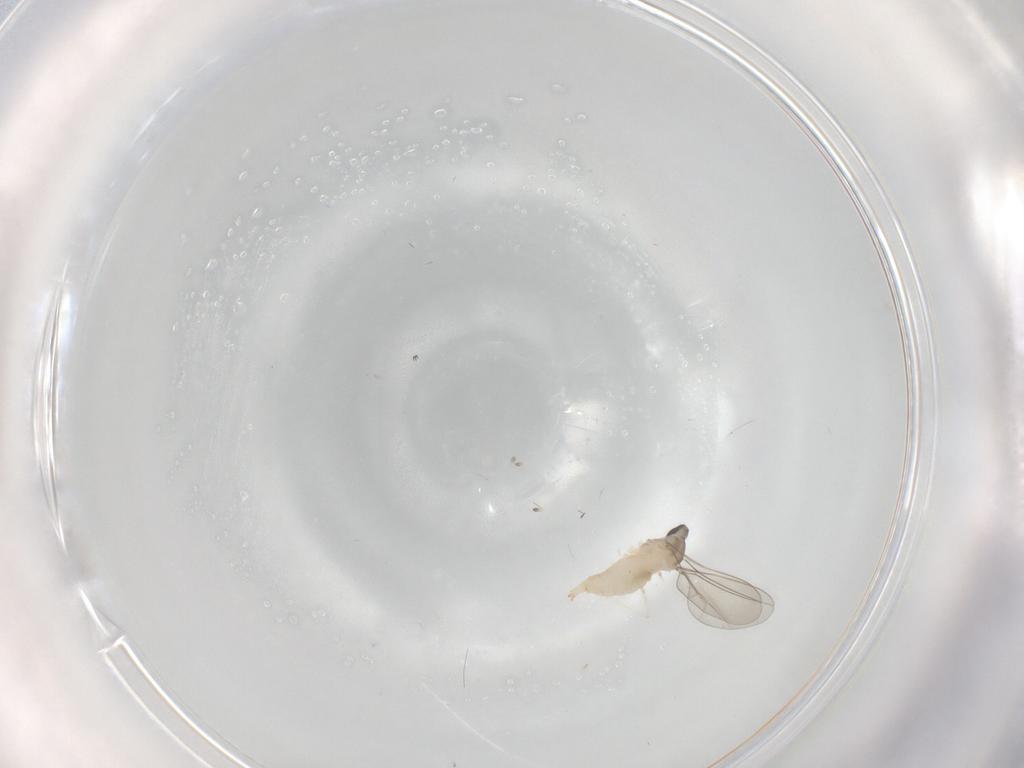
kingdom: Animalia
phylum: Arthropoda
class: Insecta
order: Diptera
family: Cecidomyiidae
